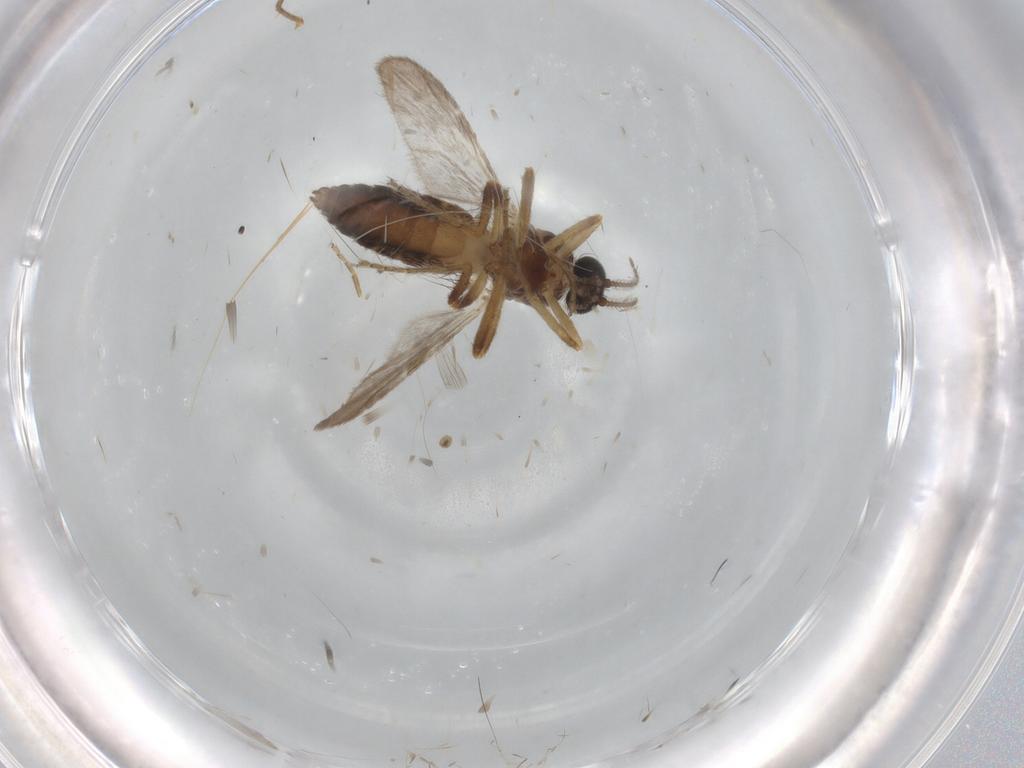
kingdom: Animalia
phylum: Arthropoda
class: Insecta
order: Diptera
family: Ceratopogonidae
